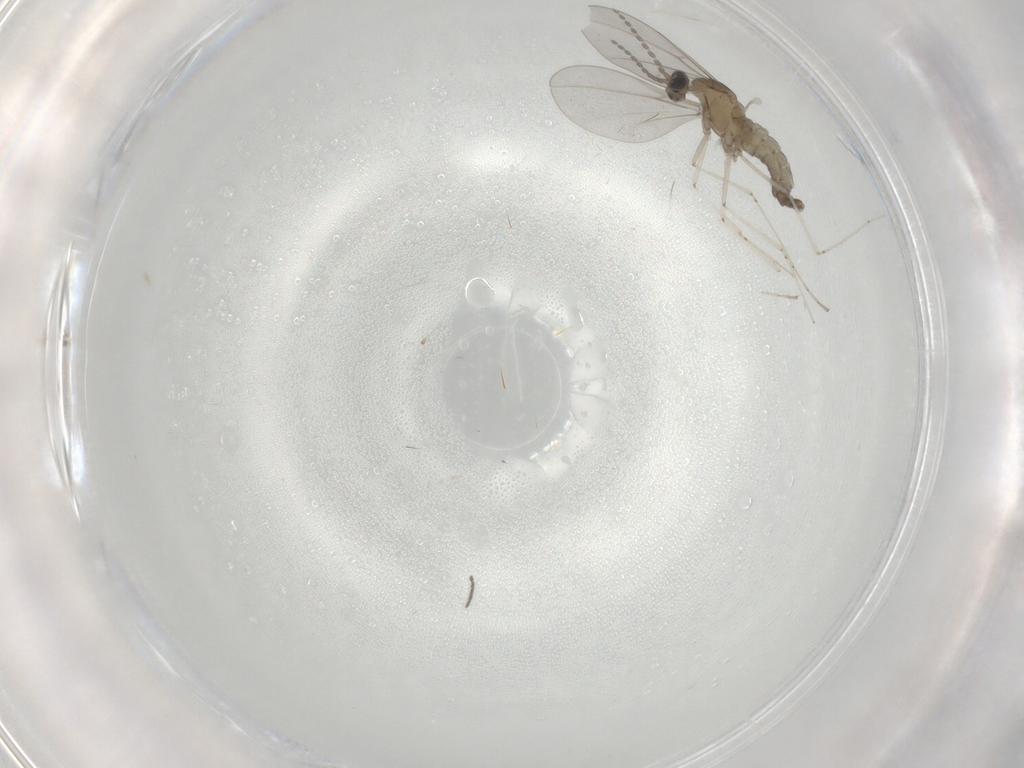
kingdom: Animalia
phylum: Arthropoda
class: Insecta
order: Diptera
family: Cecidomyiidae
